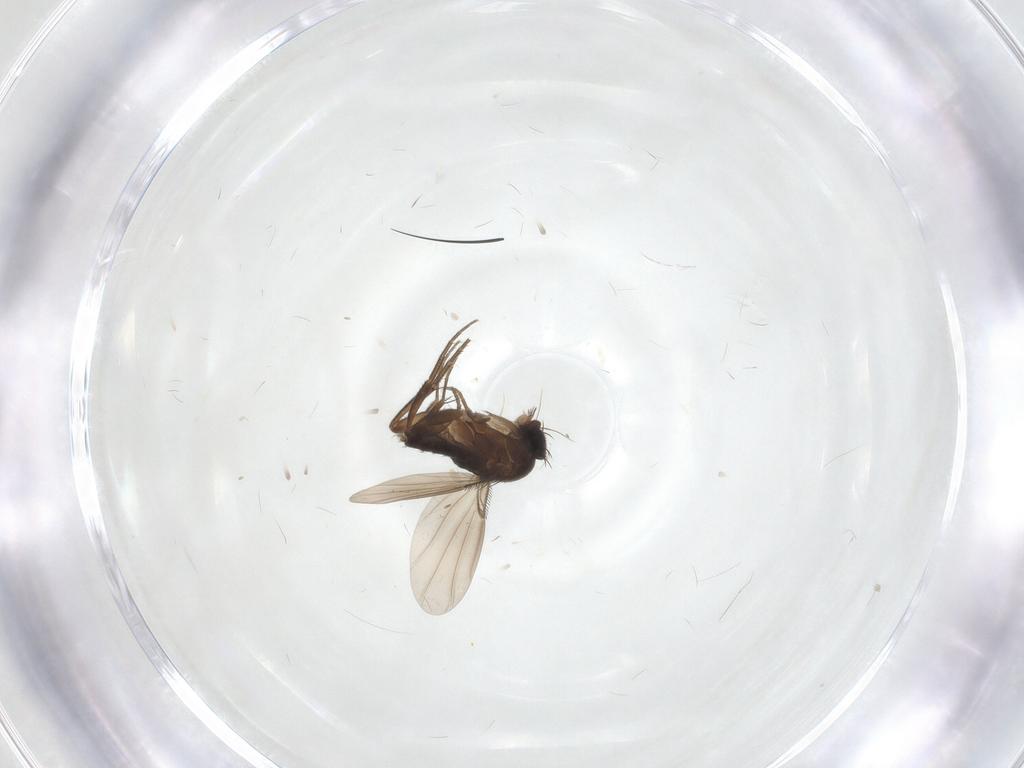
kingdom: Animalia
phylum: Arthropoda
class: Insecta
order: Diptera
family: Phoridae
